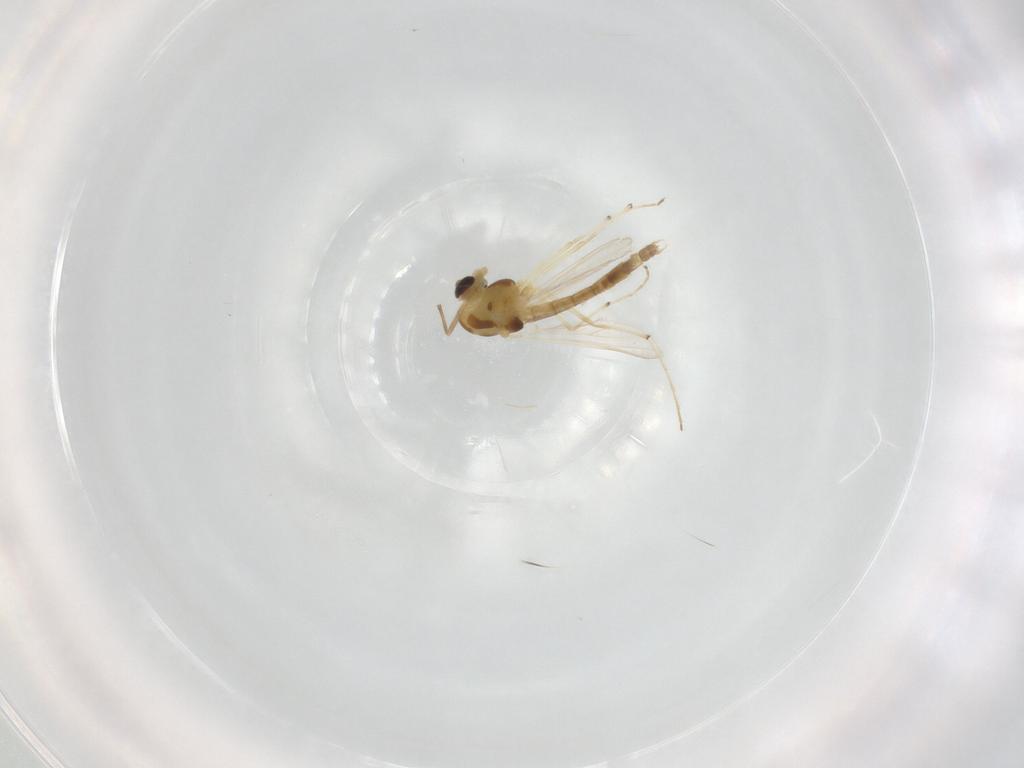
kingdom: Animalia
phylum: Arthropoda
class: Insecta
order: Diptera
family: Chironomidae
